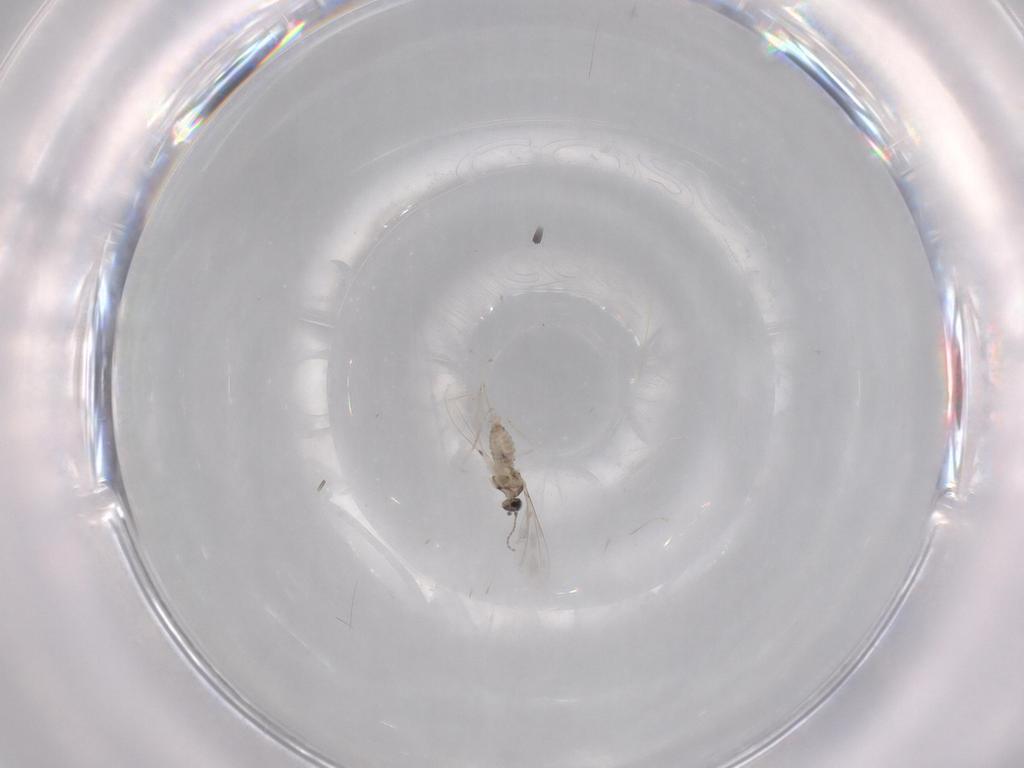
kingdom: Animalia
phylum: Arthropoda
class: Insecta
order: Diptera
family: Cecidomyiidae
